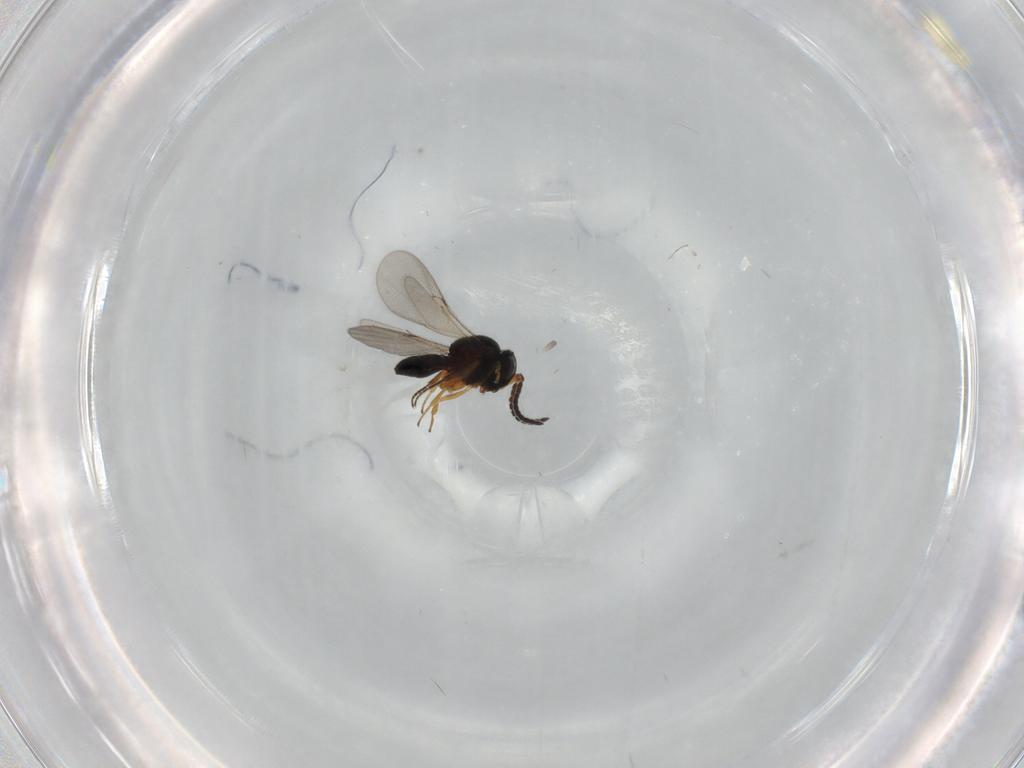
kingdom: Animalia
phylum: Arthropoda
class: Insecta
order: Hymenoptera
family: Scelionidae
